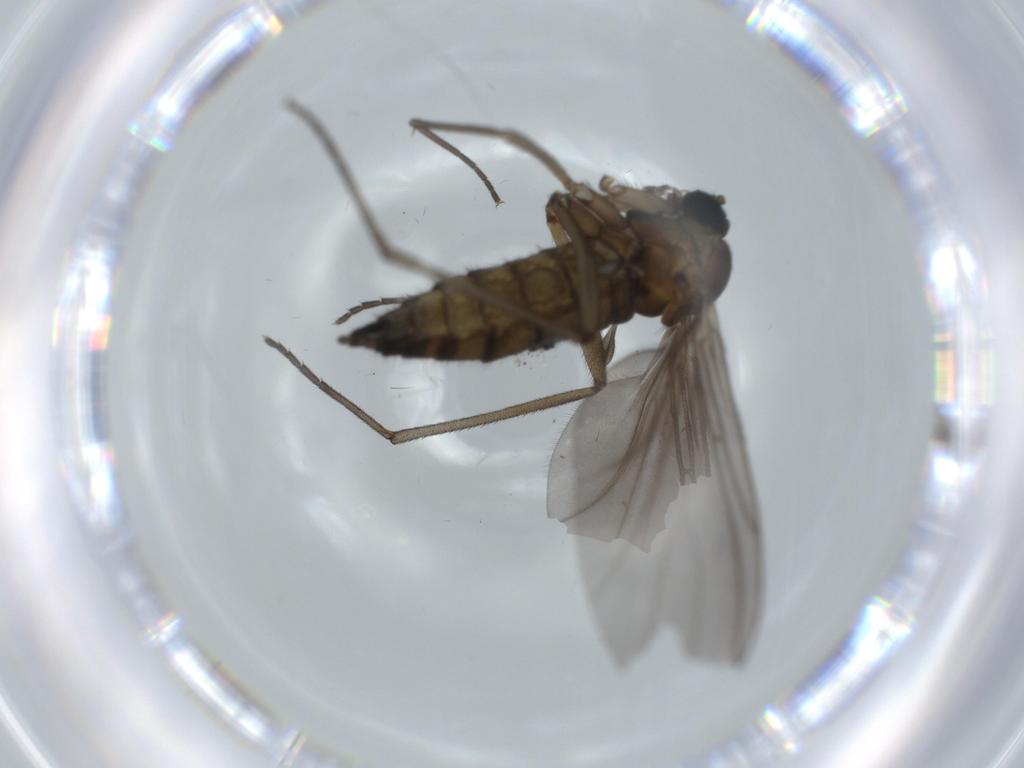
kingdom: Animalia
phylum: Arthropoda
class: Insecta
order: Diptera
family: Sciaridae
